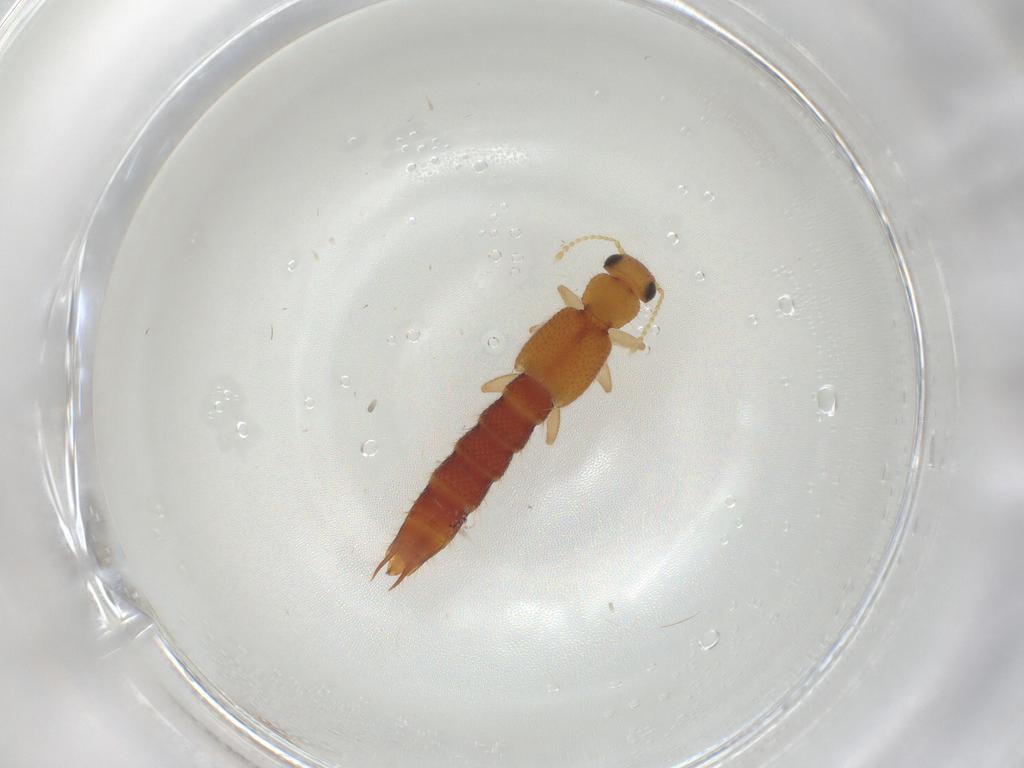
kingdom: Animalia
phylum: Arthropoda
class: Insecta
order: Coleoptera
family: Staphylinidae
